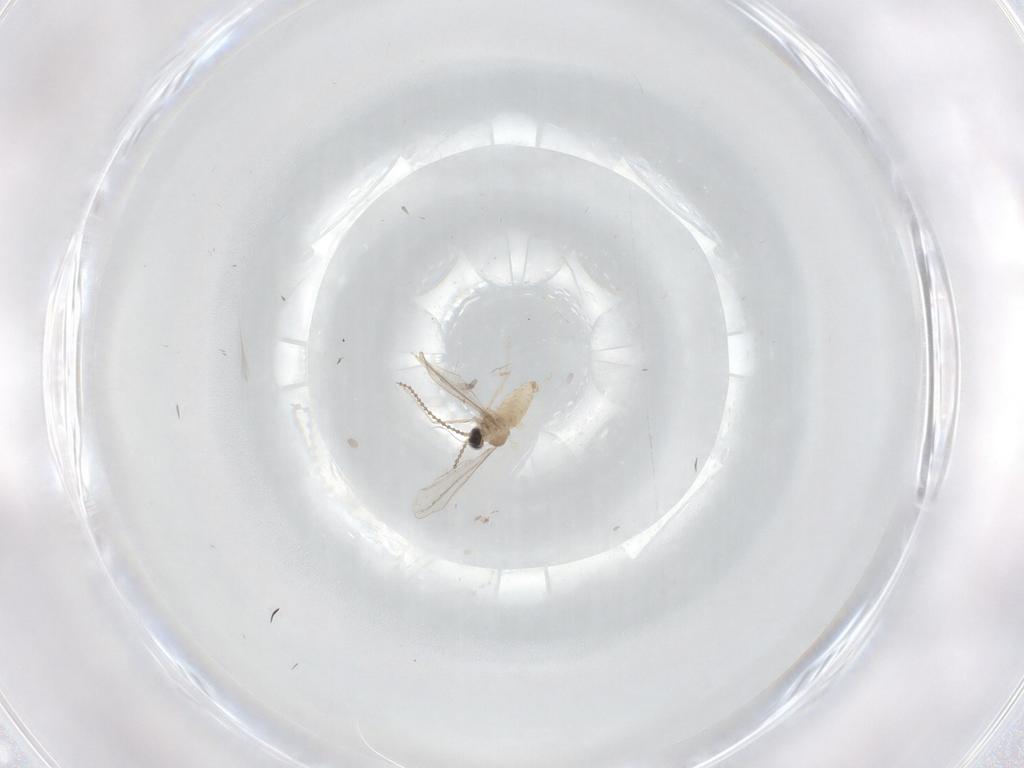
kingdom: Animalia
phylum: Arthropoda
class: Insecta
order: Diptera
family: Cecidomyiidae
